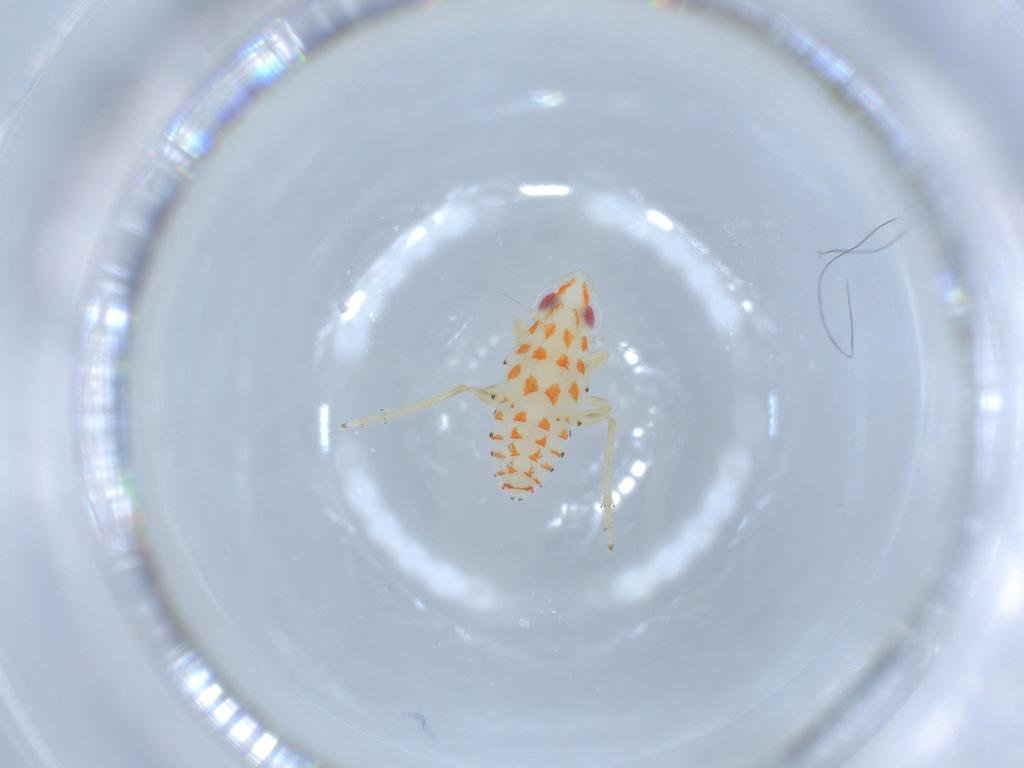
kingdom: Animalia
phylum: Arthropoda
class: Insecta
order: Hemiptera
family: Tropiduchidae
